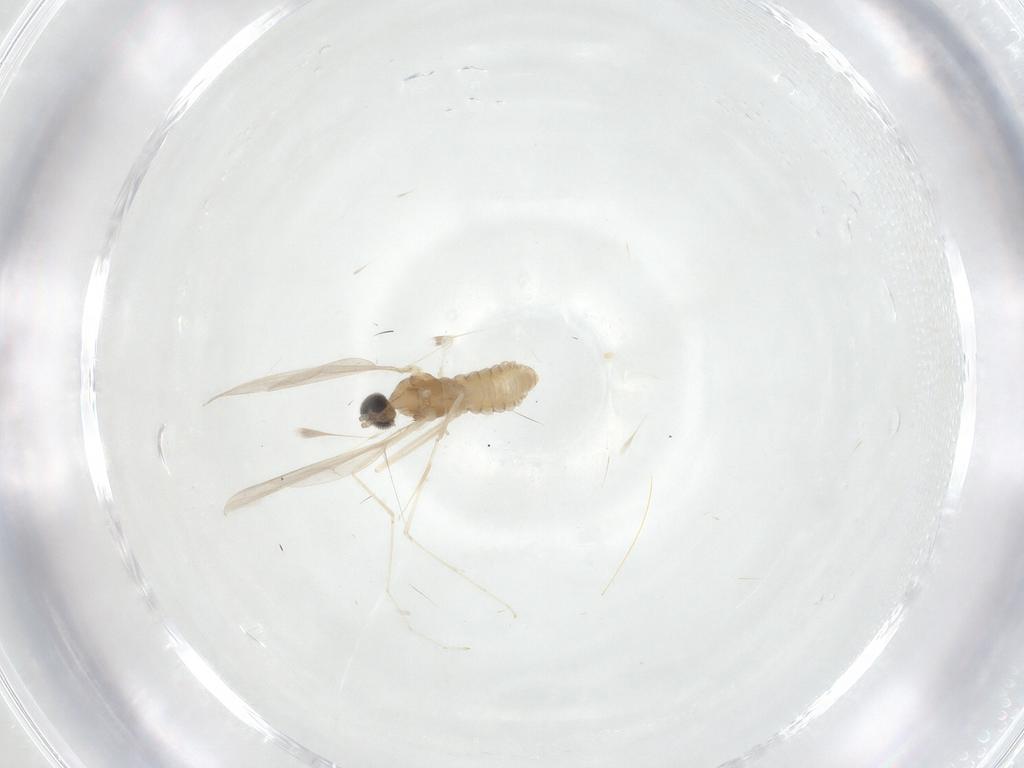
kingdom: Animalia
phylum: Arthropoda
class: Insecta
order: Diptera
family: Cecidomyiidae
